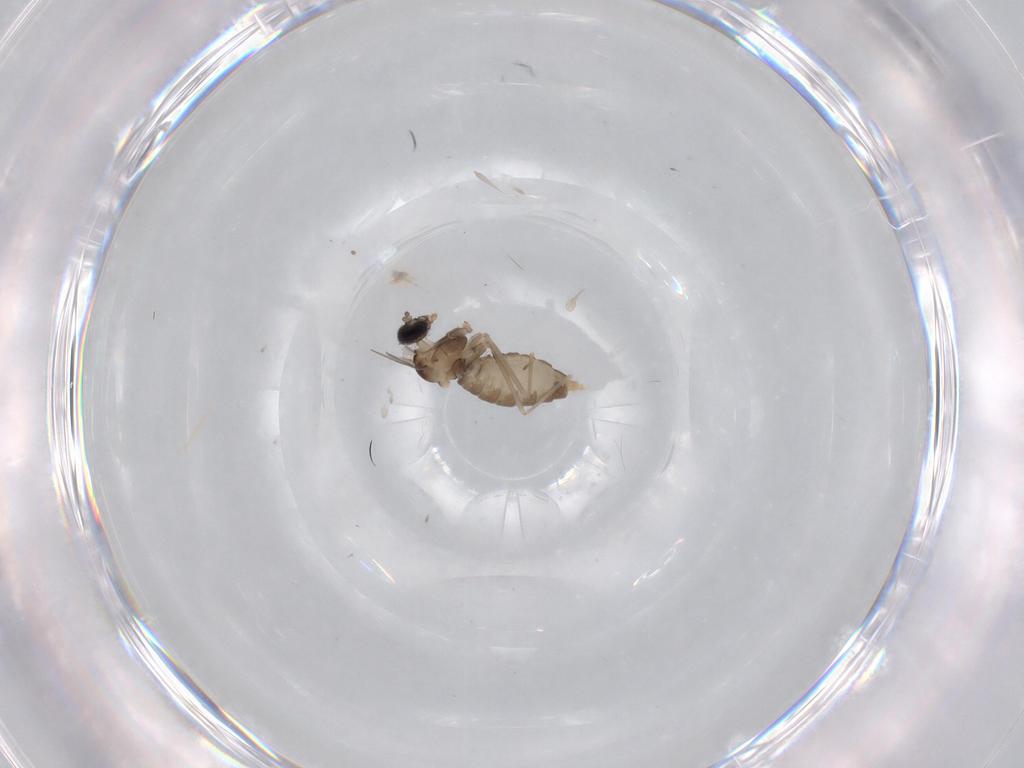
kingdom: Animalia
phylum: Arthropoda
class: Insecta
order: Diptera
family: Cecidomyiidae
